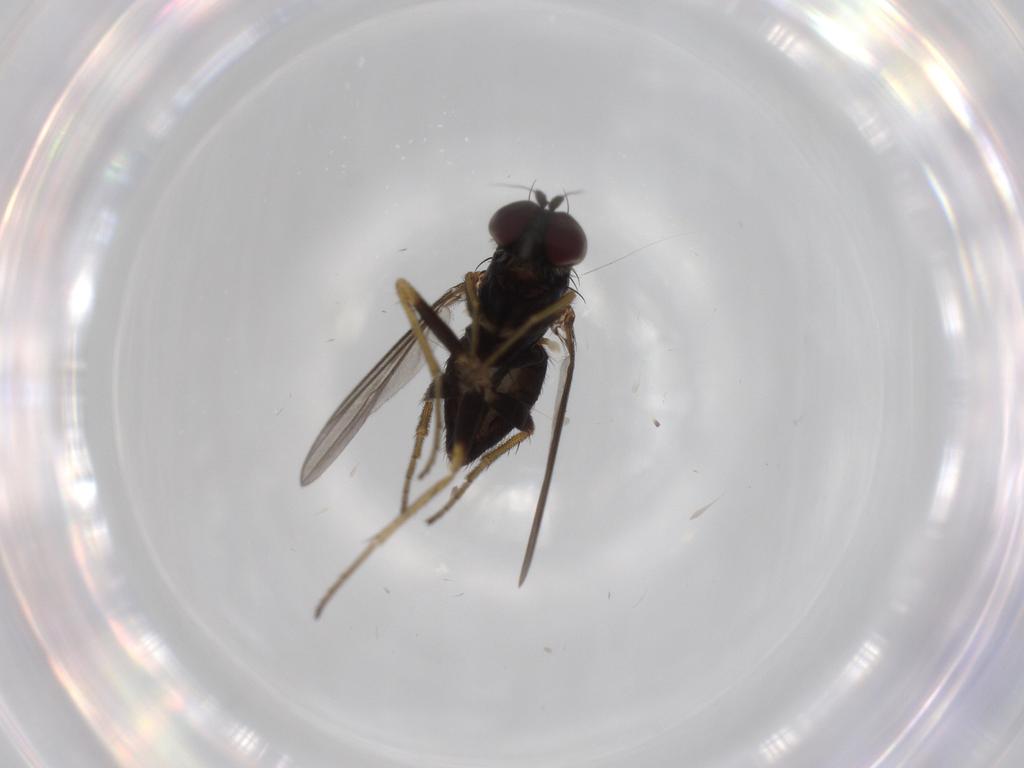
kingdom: Animalia
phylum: Arthropoda
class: Insecta
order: Diptera
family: Dolichopodidae
